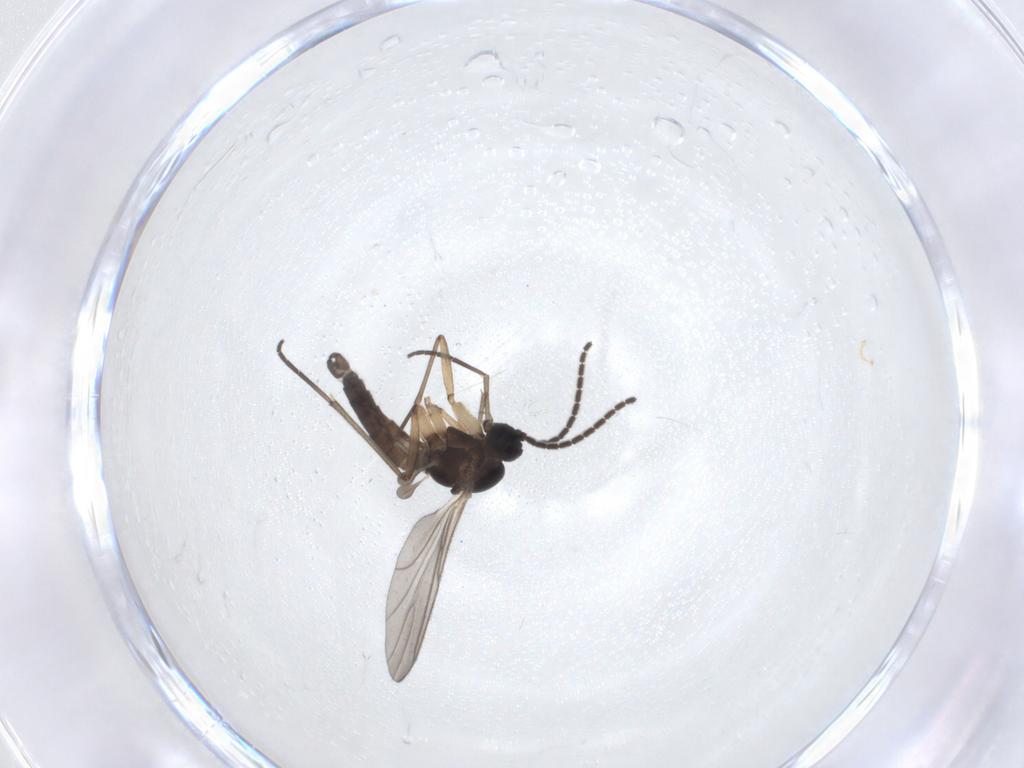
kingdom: Animalia
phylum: Arthropoda
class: Insecta
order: Diptera
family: Sciaridae
